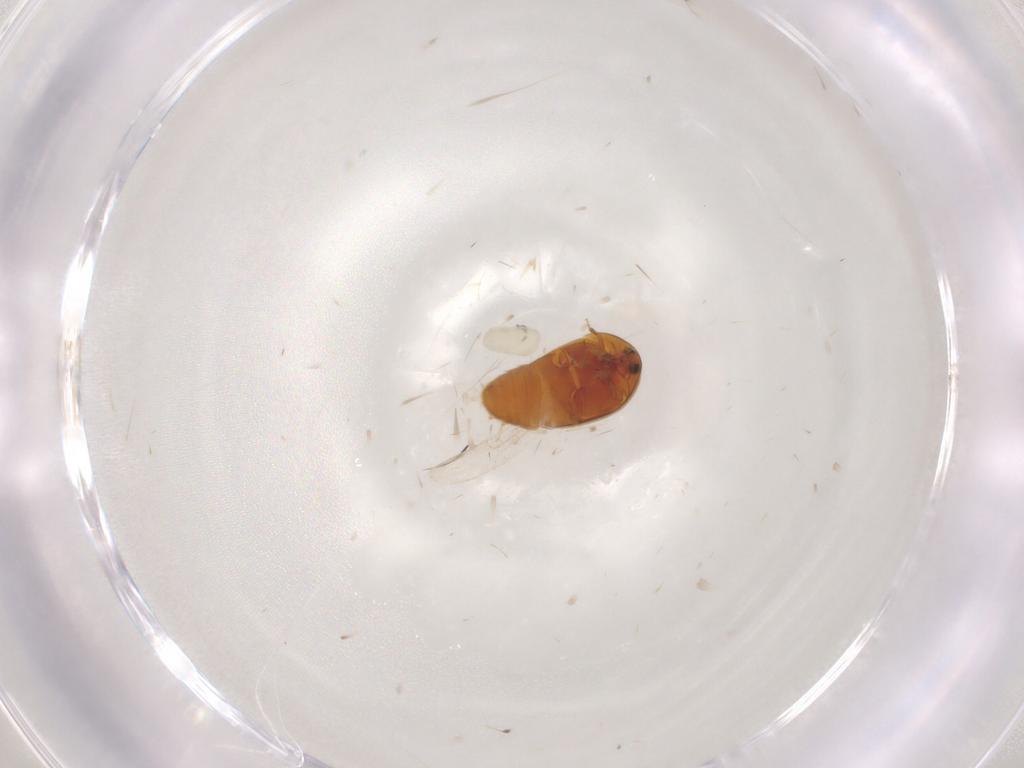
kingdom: Animalia
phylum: Arthropoda
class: Insecta
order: Coleoptera
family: Corylophidae
